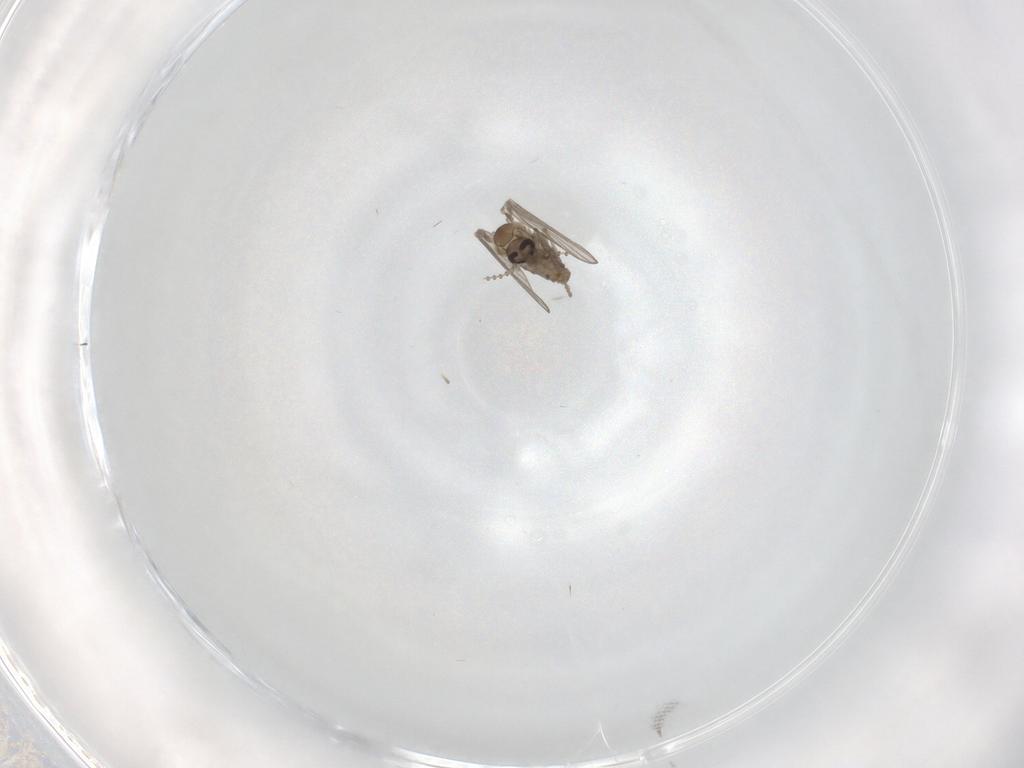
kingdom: Animalia
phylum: Arthropoda
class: Insecta
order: Diptera
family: Psychodidae
